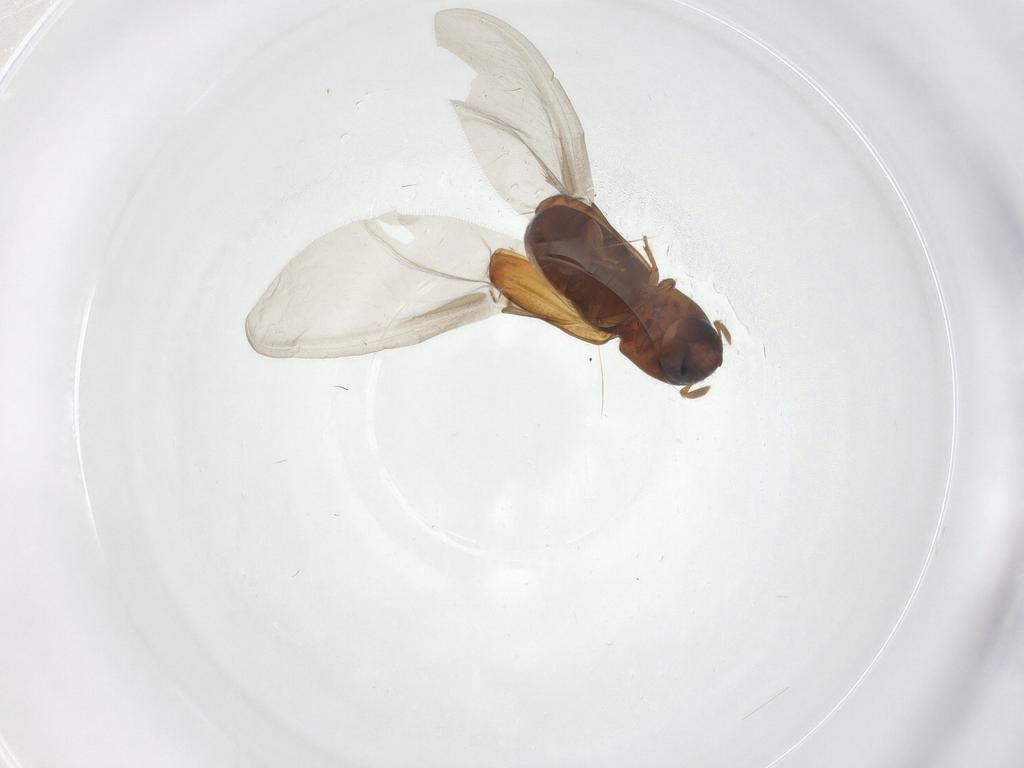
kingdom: Animalia
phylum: Arthropoda
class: Insecta
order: Coleoptera
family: Curculionidae
